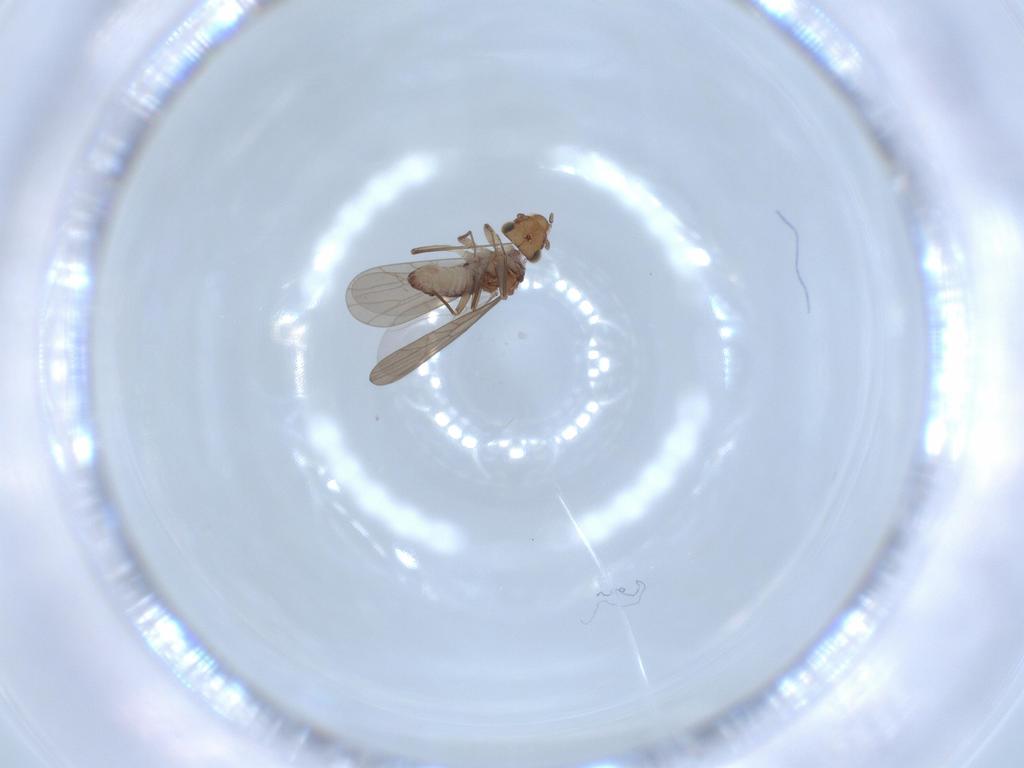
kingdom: Animalia
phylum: Arthropoda
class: Insecta
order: Psocodea
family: Lepidopsocidae
